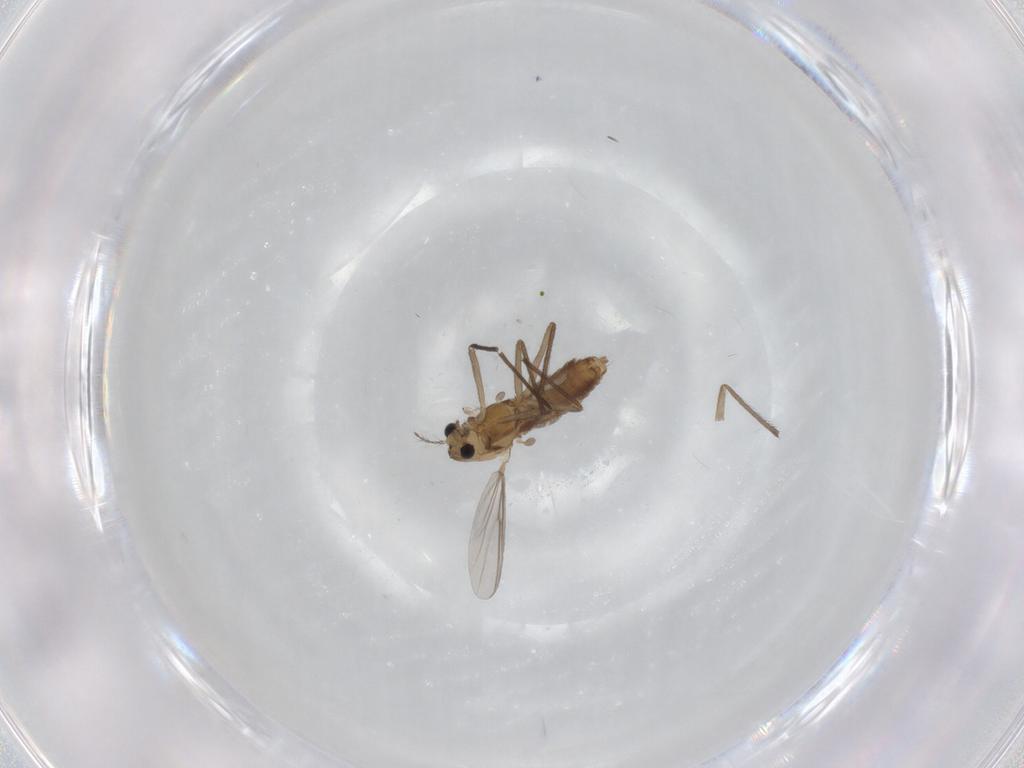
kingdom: Animalia
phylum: Arthropoda
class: Insecta
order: Diptera
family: Chironomidae
